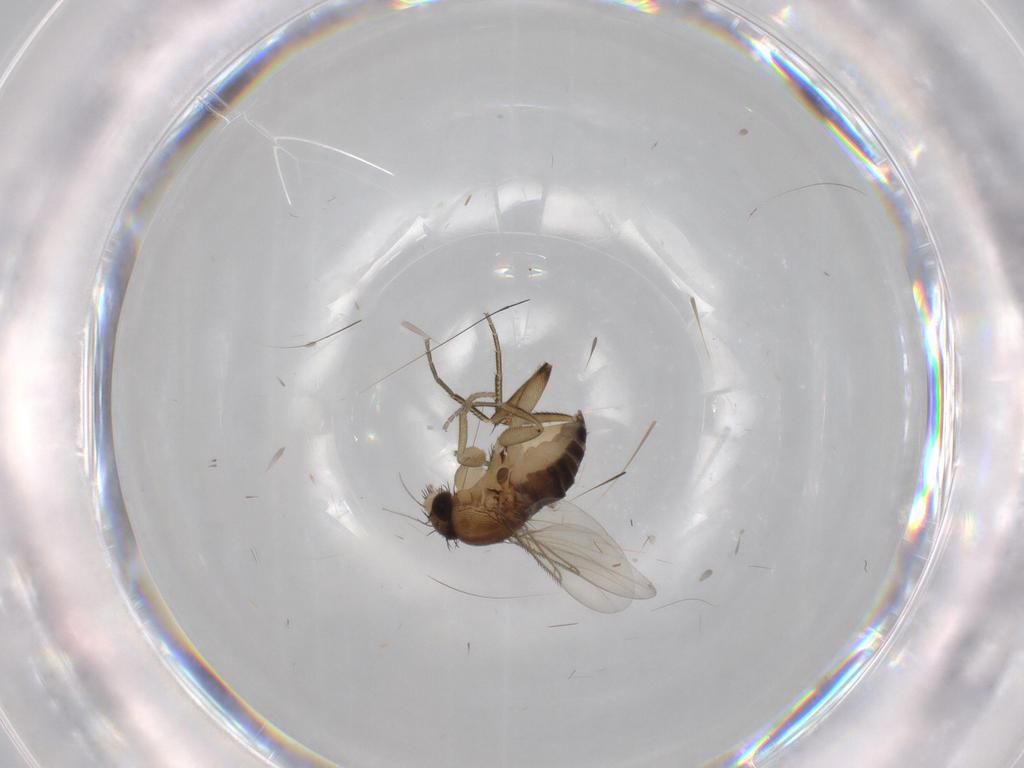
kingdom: Animalia
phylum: Arthropoda
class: Insecta
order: Diptera
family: Phoridae
